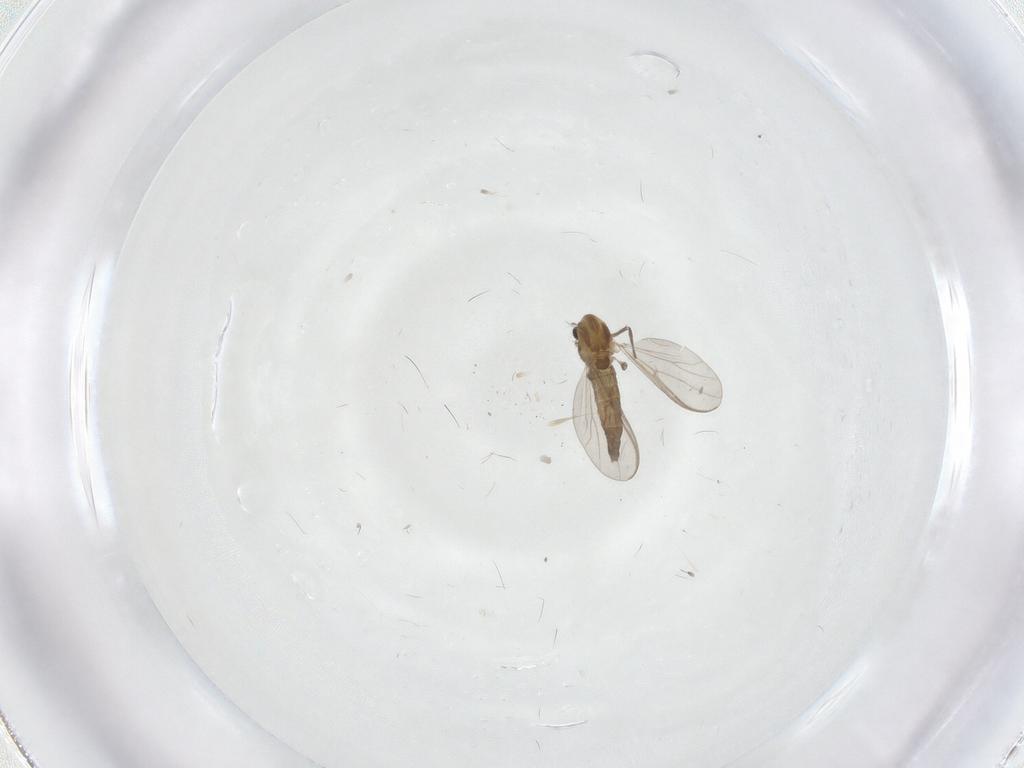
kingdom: Animalia
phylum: Arthropoda
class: Insecta
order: Diptera
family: Chironomidae
